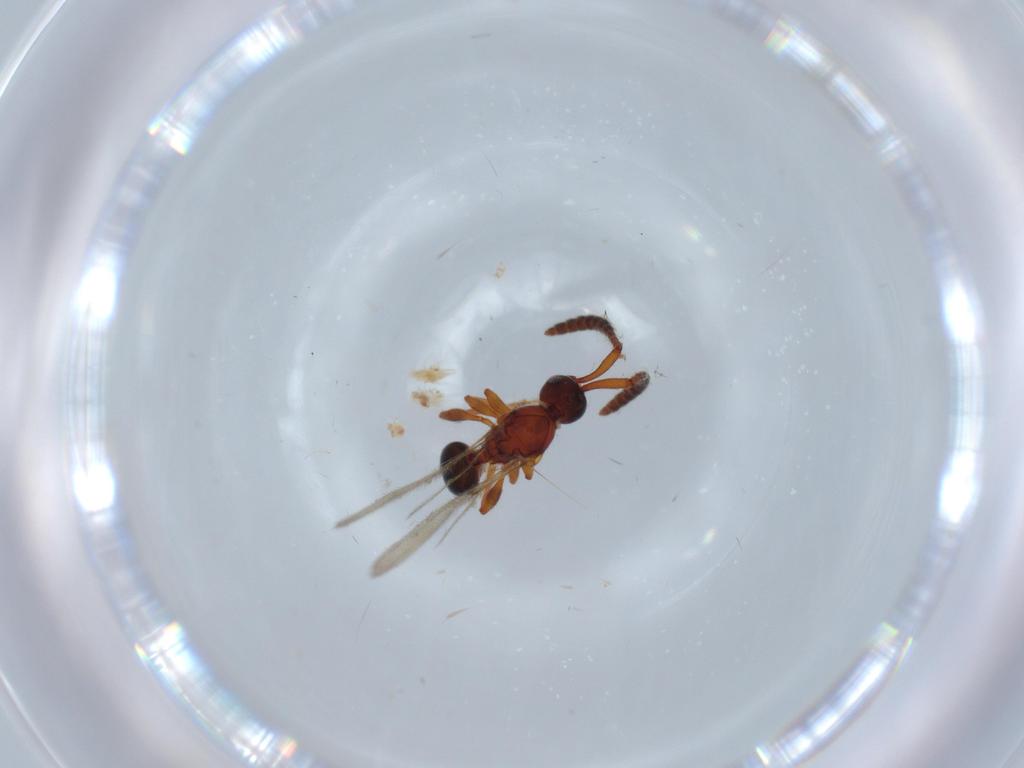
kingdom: Animalia
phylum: Arthropoda
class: Insecta
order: Hymenoptera
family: Diapriidae
